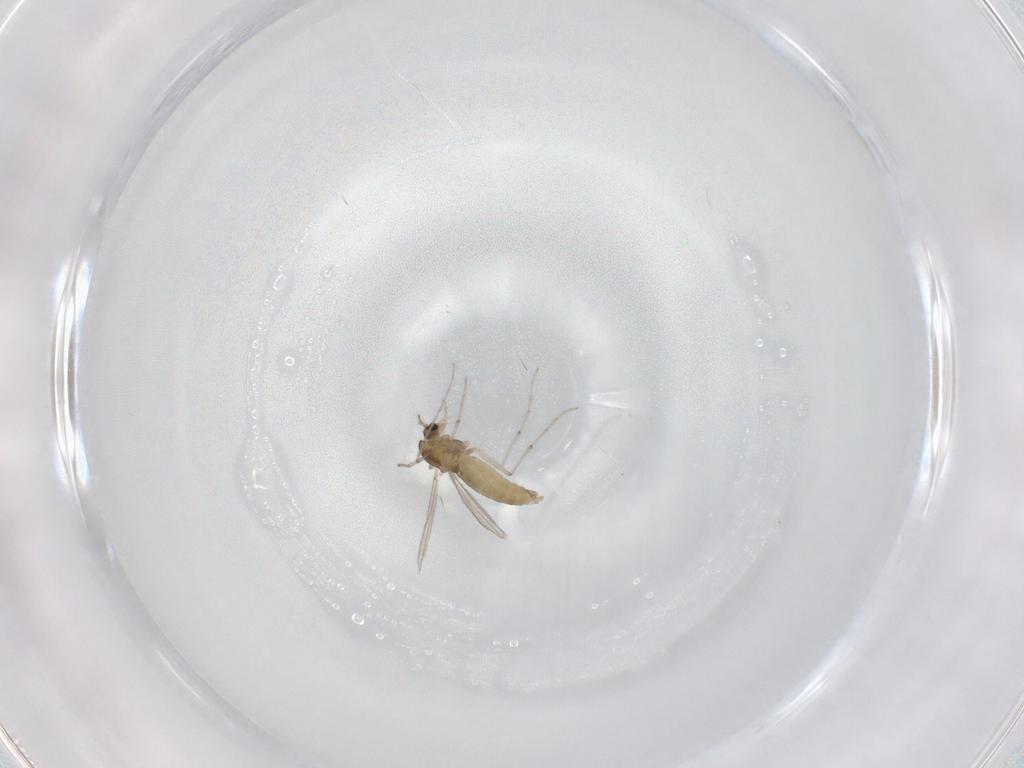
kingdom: Animalia
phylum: Arthropoda
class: Insecta
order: Diptera
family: Chironomidae
